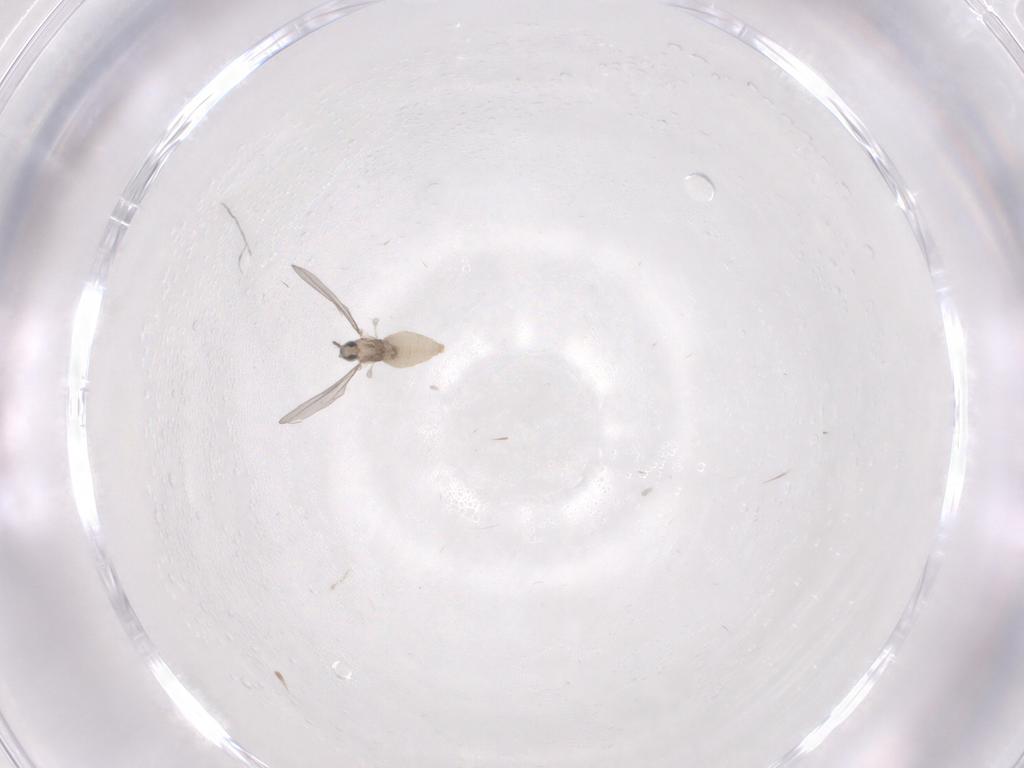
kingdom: Animalia
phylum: Arthropoda
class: Insecta
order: Diptera
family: Cecidomyiidae
